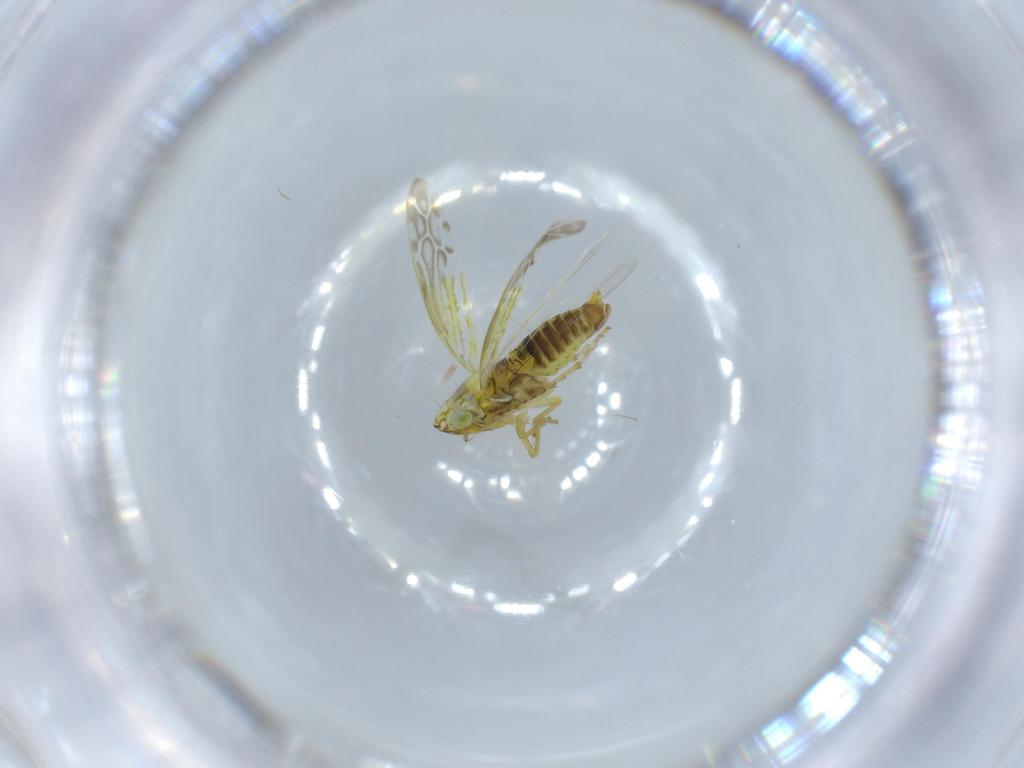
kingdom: Animalia
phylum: Arthropoda
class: Insecta
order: Hemiptera
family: Cicadellidae
